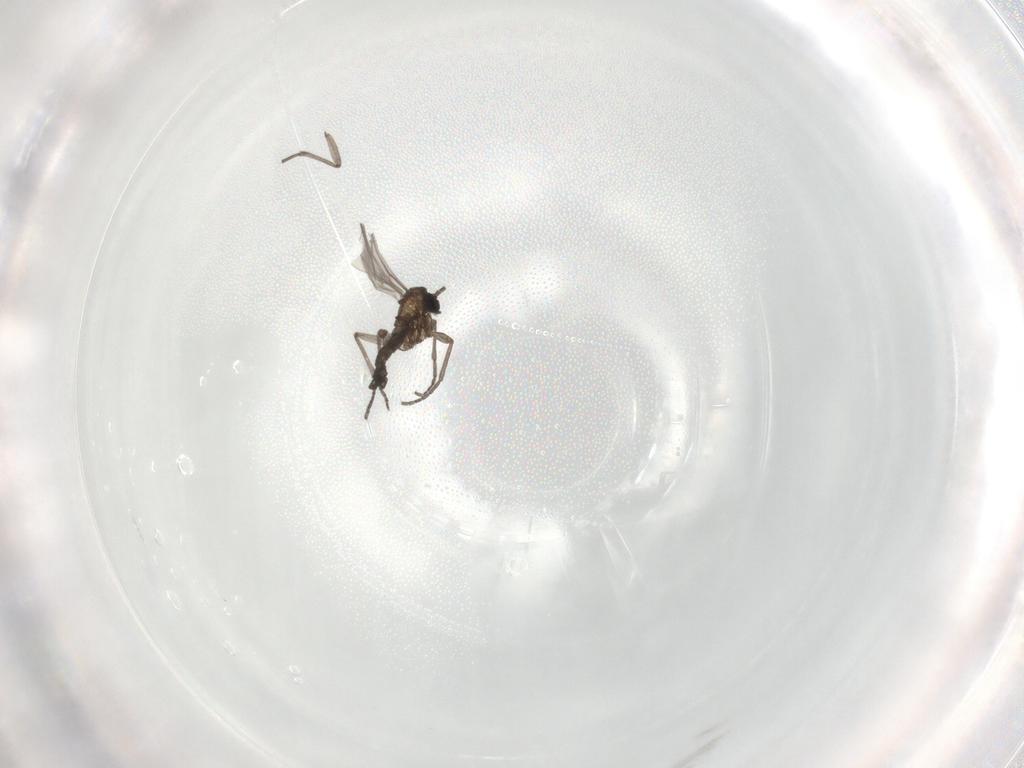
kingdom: Animalia
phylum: Arthropoda
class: Insecta
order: Diptera
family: Sciaridae
